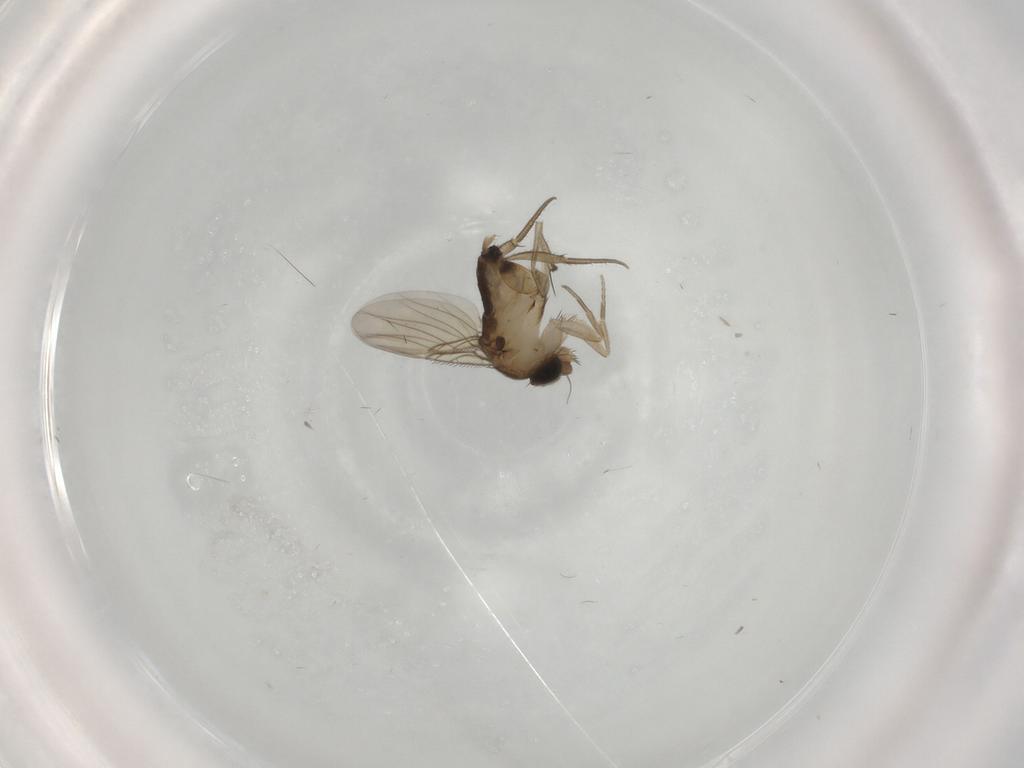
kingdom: Animalia
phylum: Arthropoda
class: Insecta
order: Diptera
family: Phoridae
